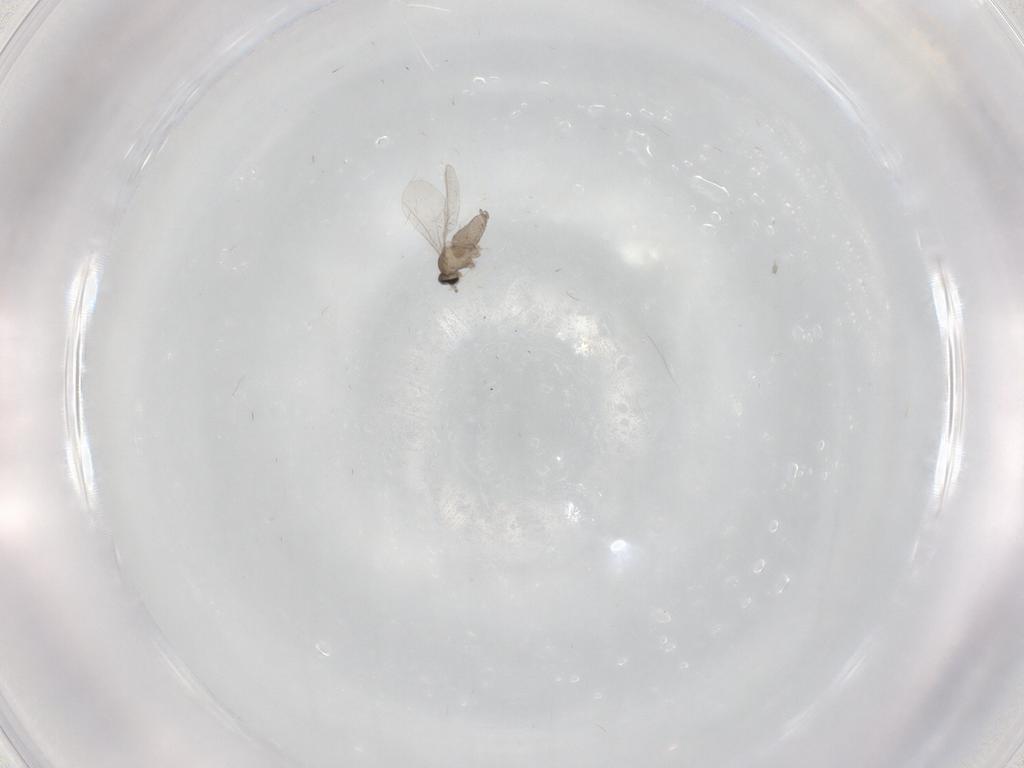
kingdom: Animalia
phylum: Arthropoda
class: Insecta
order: Diptera
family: Cecidomyiidae
